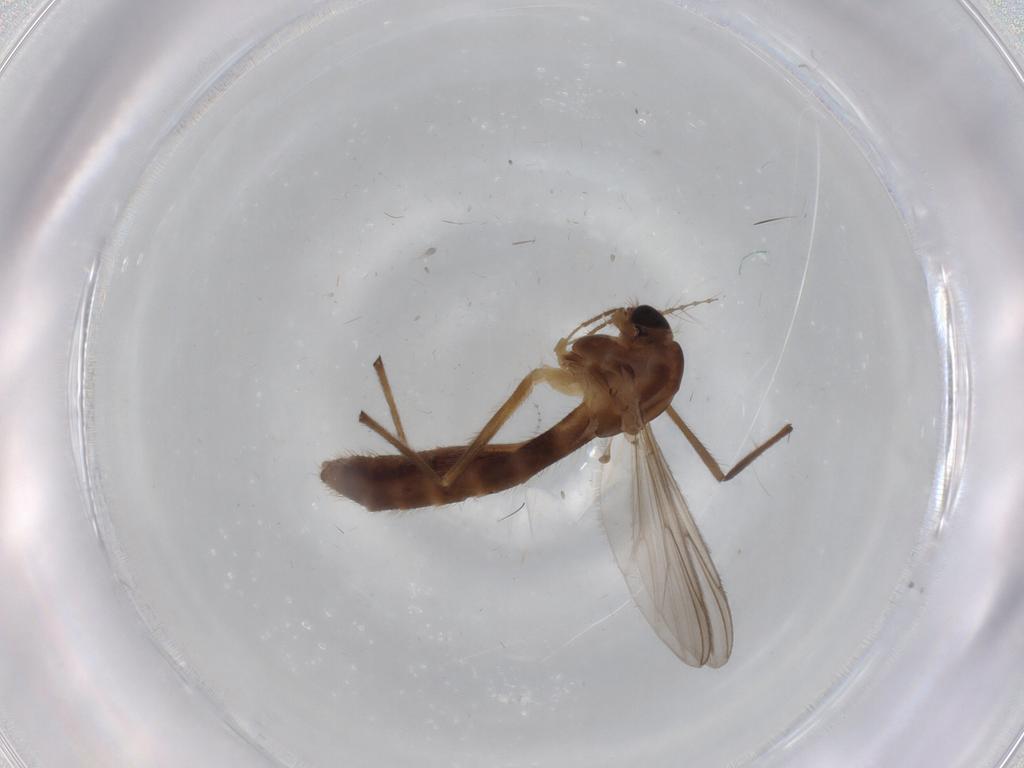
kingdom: Animalia
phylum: Arthropoda
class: Insecta
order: Diptera
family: Chironomidae
